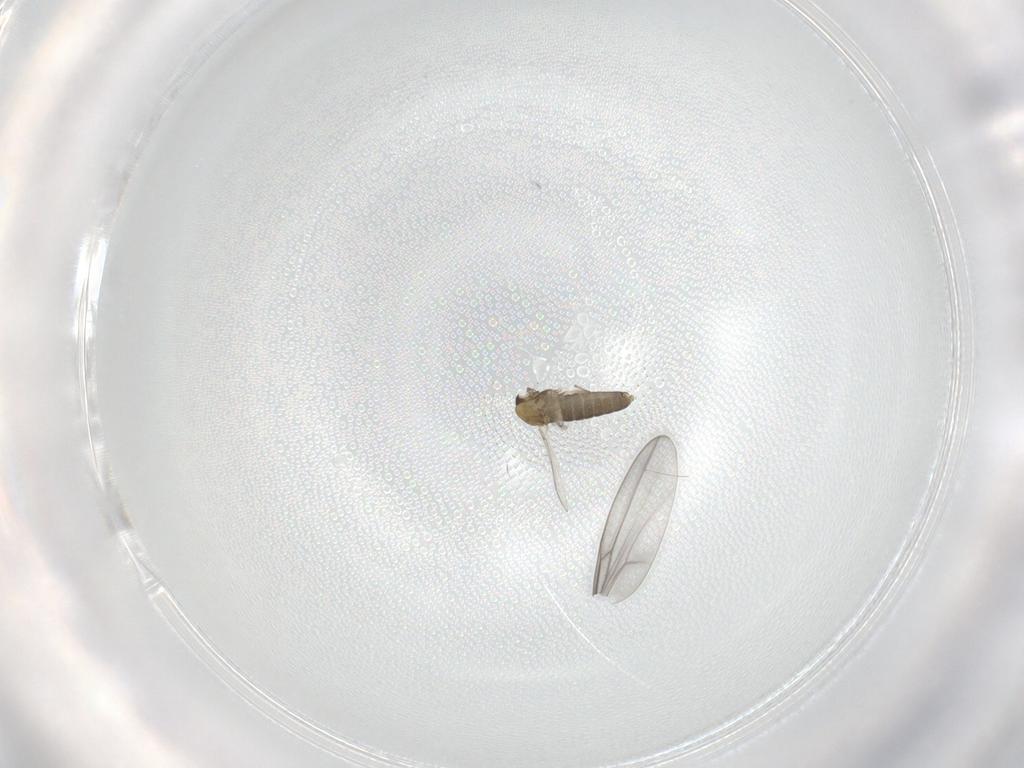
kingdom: Animalia
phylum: Arthropoda
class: Insecta
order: Diptera
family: Chironomidae
